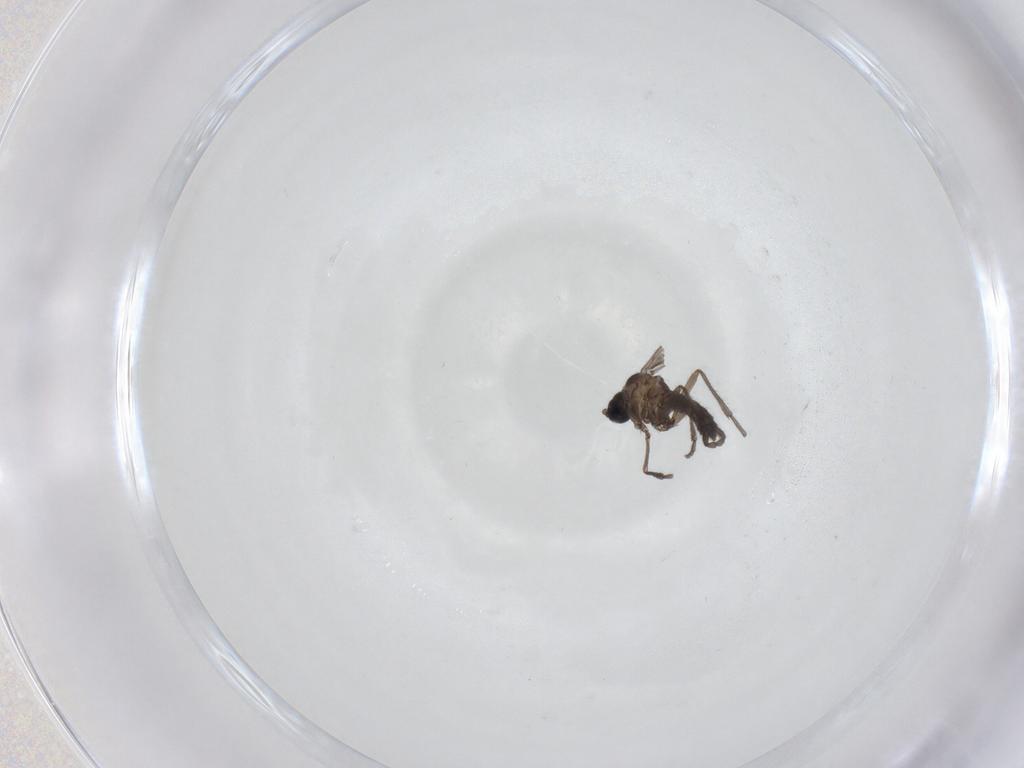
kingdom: Animalia
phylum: Arthropoda
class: Insecta
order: Diptera
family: Sciaridae
